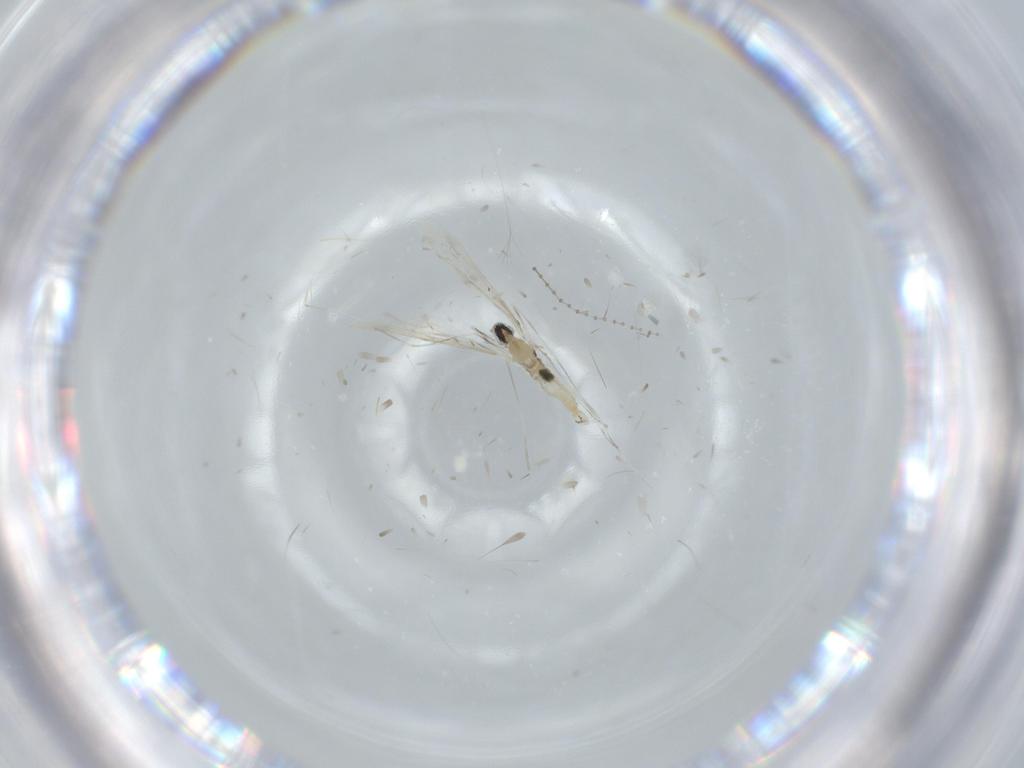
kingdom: Animalia
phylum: Arthropoda
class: Insecta
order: Diptera
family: Cecidomyiidae
